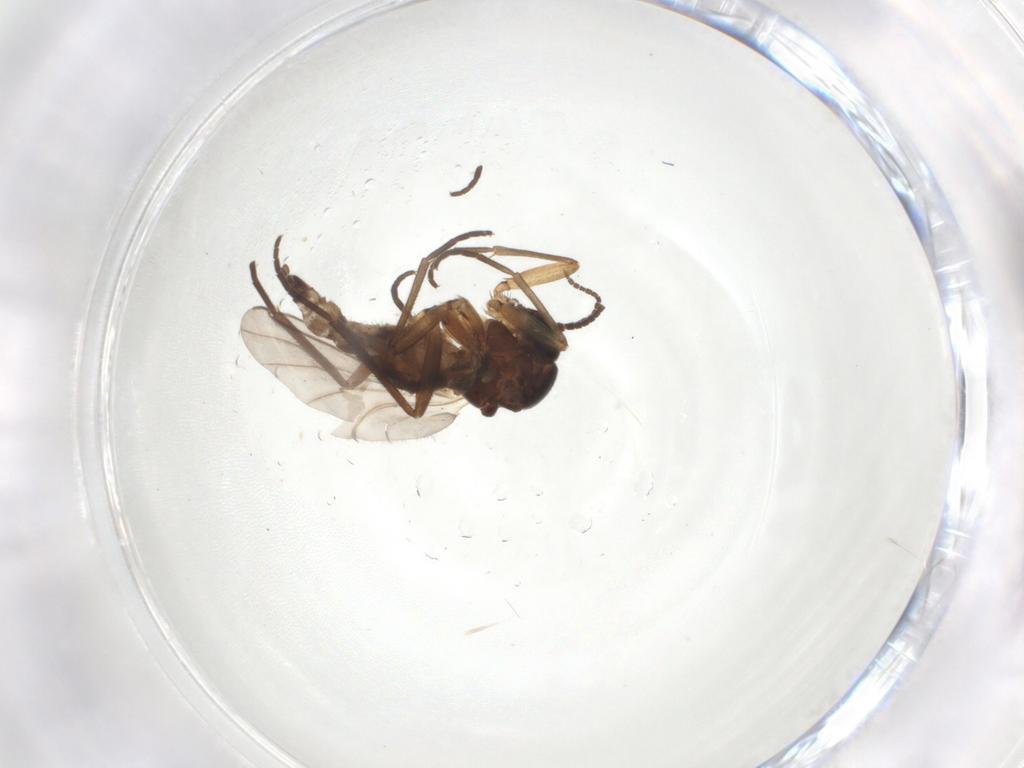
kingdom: Animalia
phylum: Arthropoda
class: Insecta
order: Diptera
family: Sciaridae
